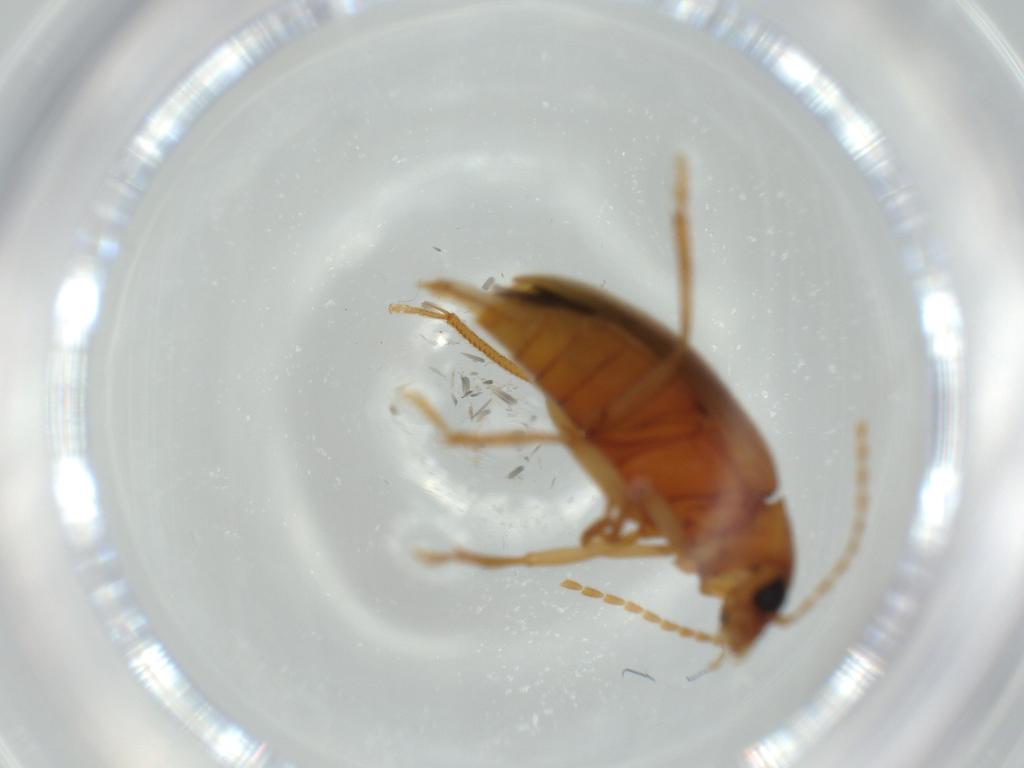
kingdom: Animalia
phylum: Arthropoda
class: Insecta
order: Coleoptera
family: Ptilodactylidae
